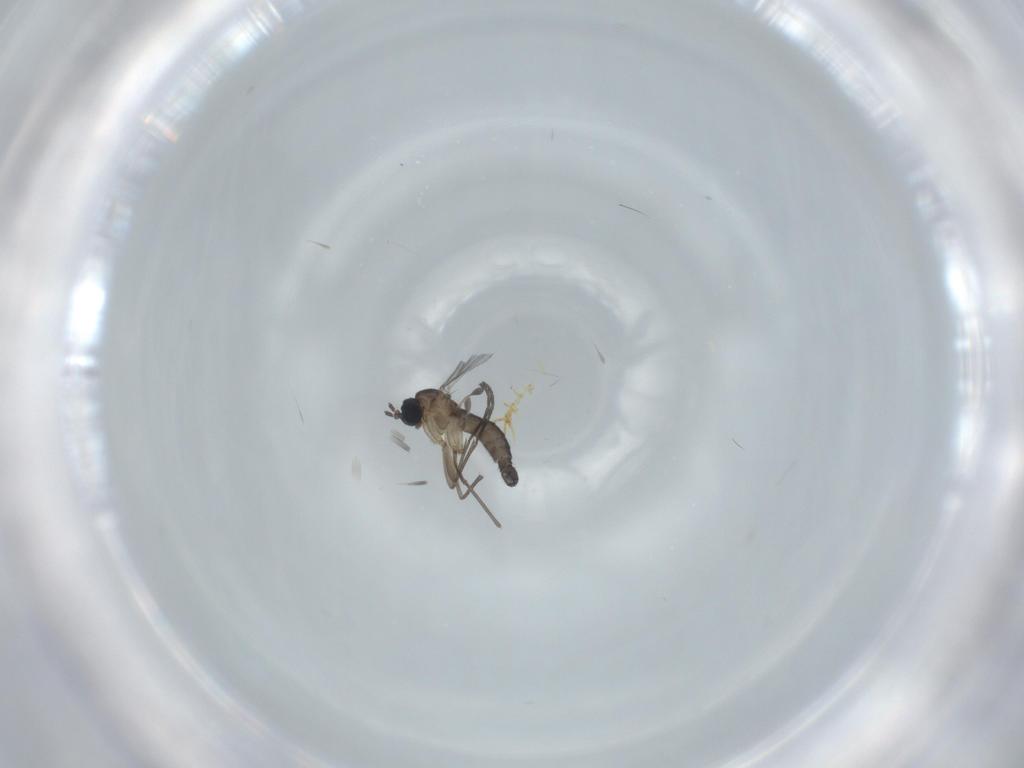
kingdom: Animalia
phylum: Arthropoda
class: Insecta
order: Diptera
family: Sciaridae
